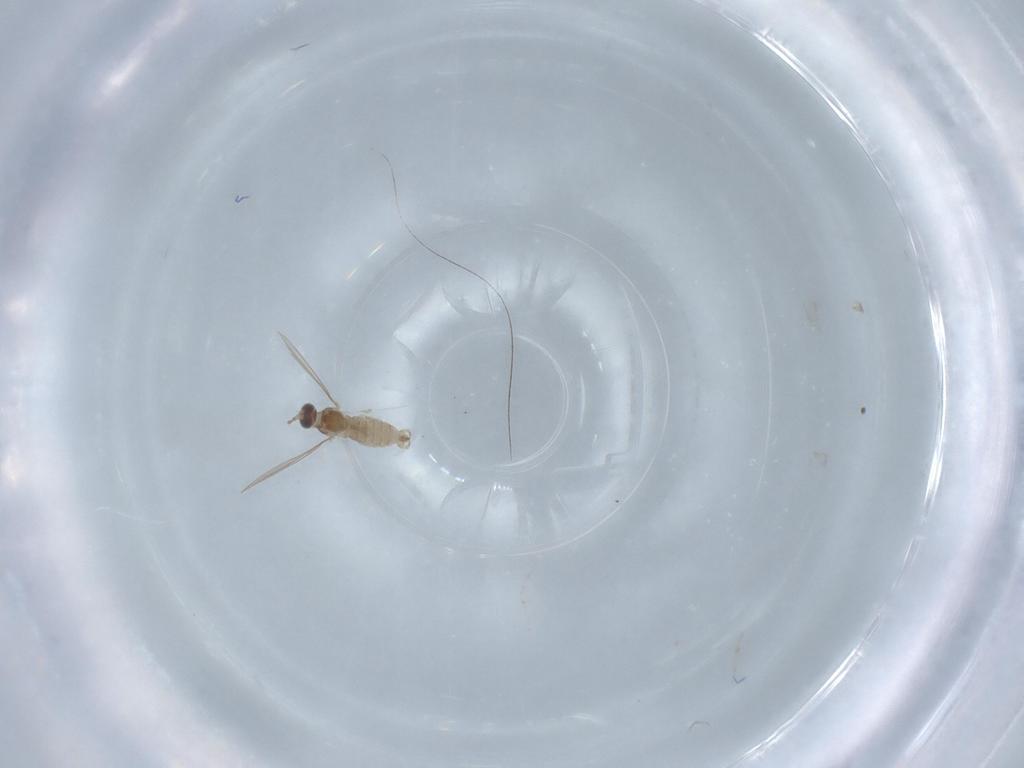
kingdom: Animalia
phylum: Arthropoda
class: Insecta
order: Diptera
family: Cecidomyiidae
